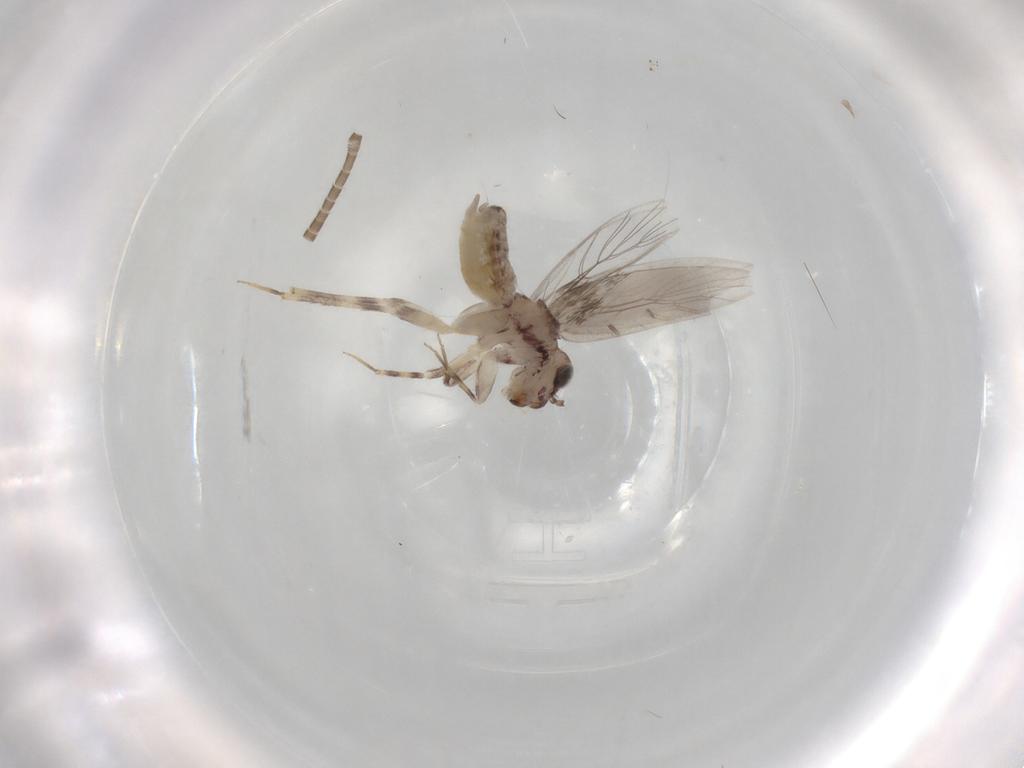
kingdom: Animalia
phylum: Arthropoda
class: Insecta
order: Psocodea
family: Lepidopsocidae
